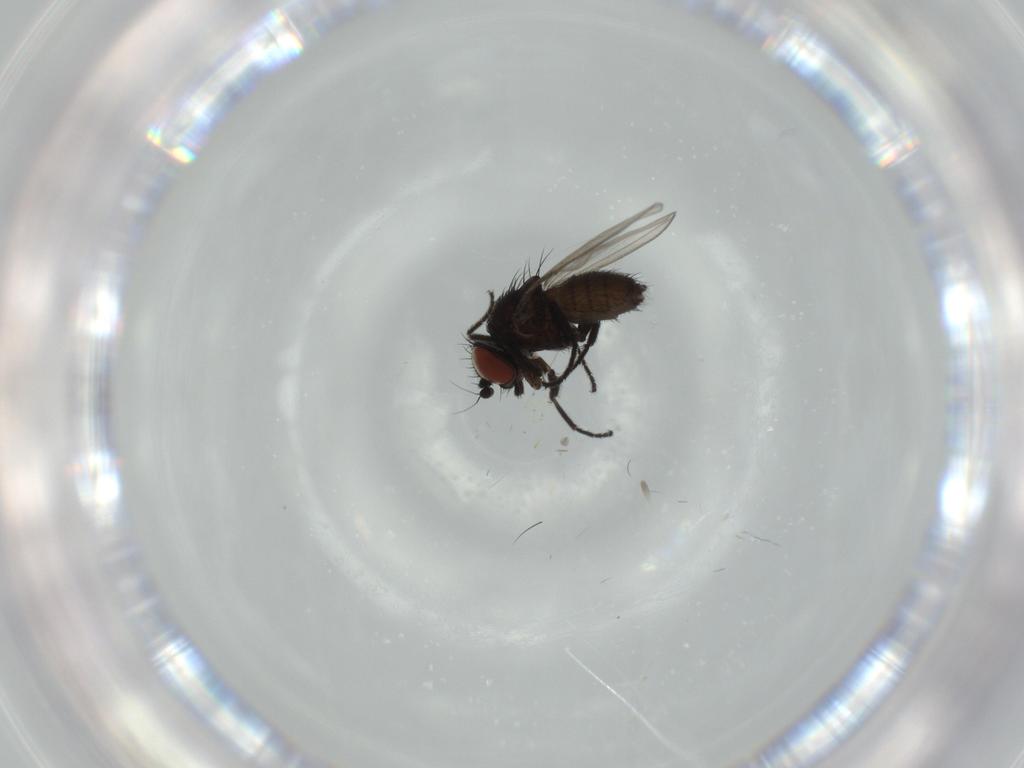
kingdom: Animalia
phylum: Arthropoda
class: Insecta
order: Diptera
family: Milichiidae
